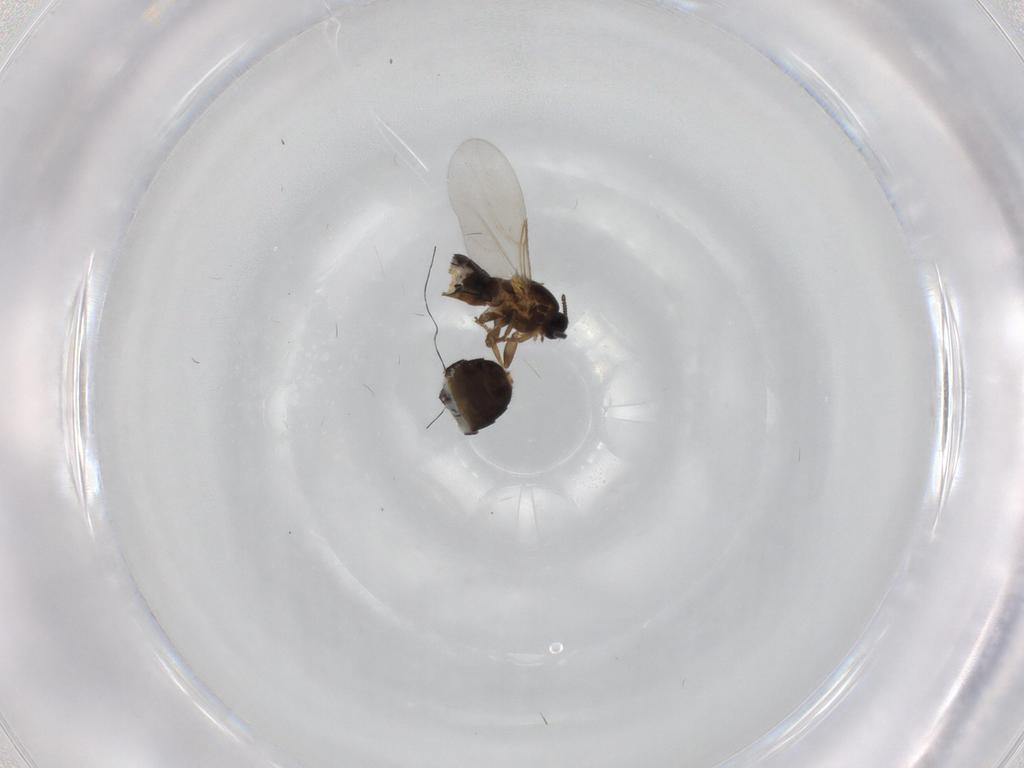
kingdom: Animalia
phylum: Arthropoda
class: Insecta
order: Diptera
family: Scatopsidae
